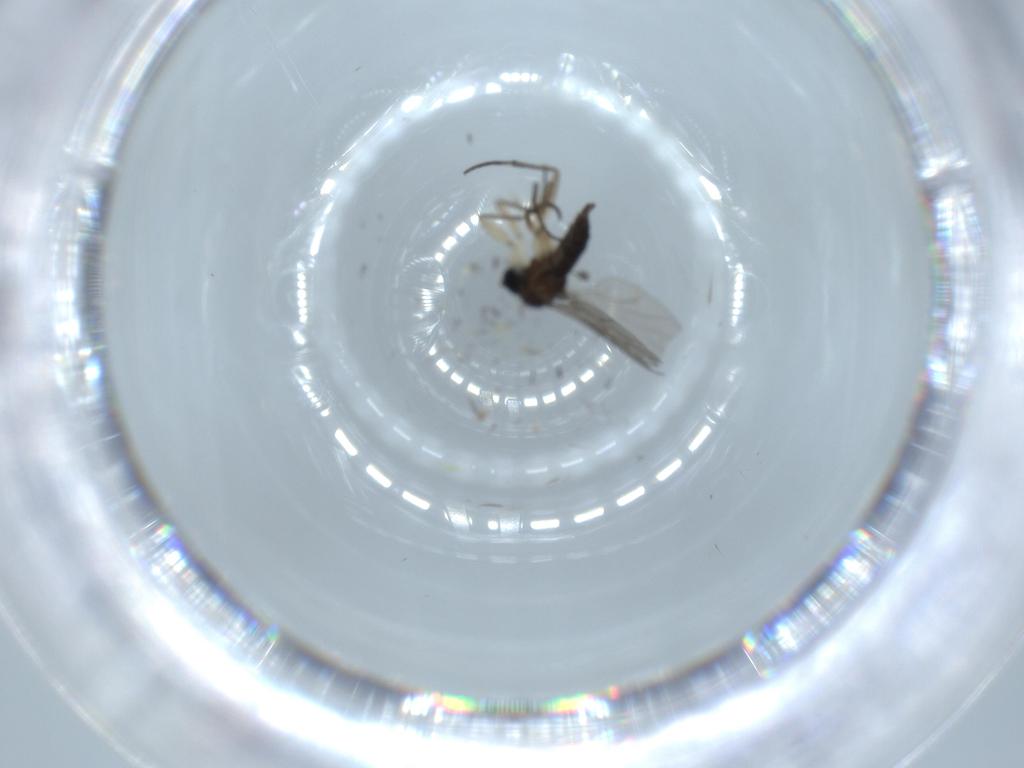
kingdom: Animalia
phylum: Arthropoda
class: Insecta
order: Diptera
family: Sciaridae
